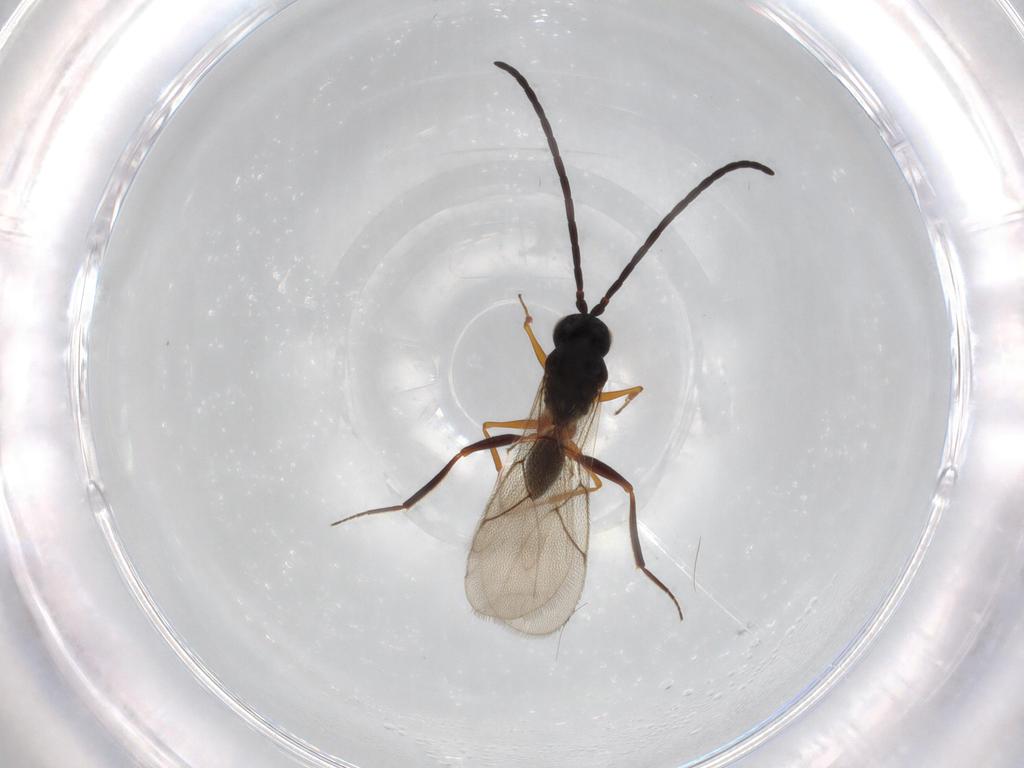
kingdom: Animalia
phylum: Arthropoda
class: Insecta
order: Hymenoptera
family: Figitidae
